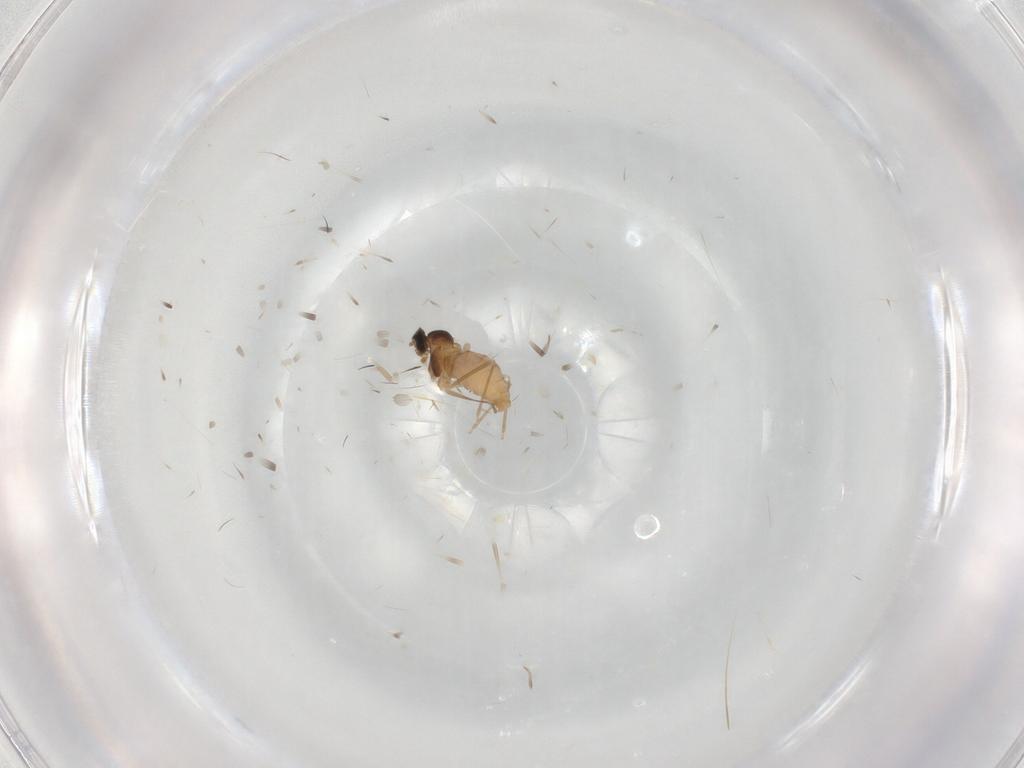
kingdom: Animalia
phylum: Arthropoda
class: Insecta
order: Diptera
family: Cecidomyiidae
